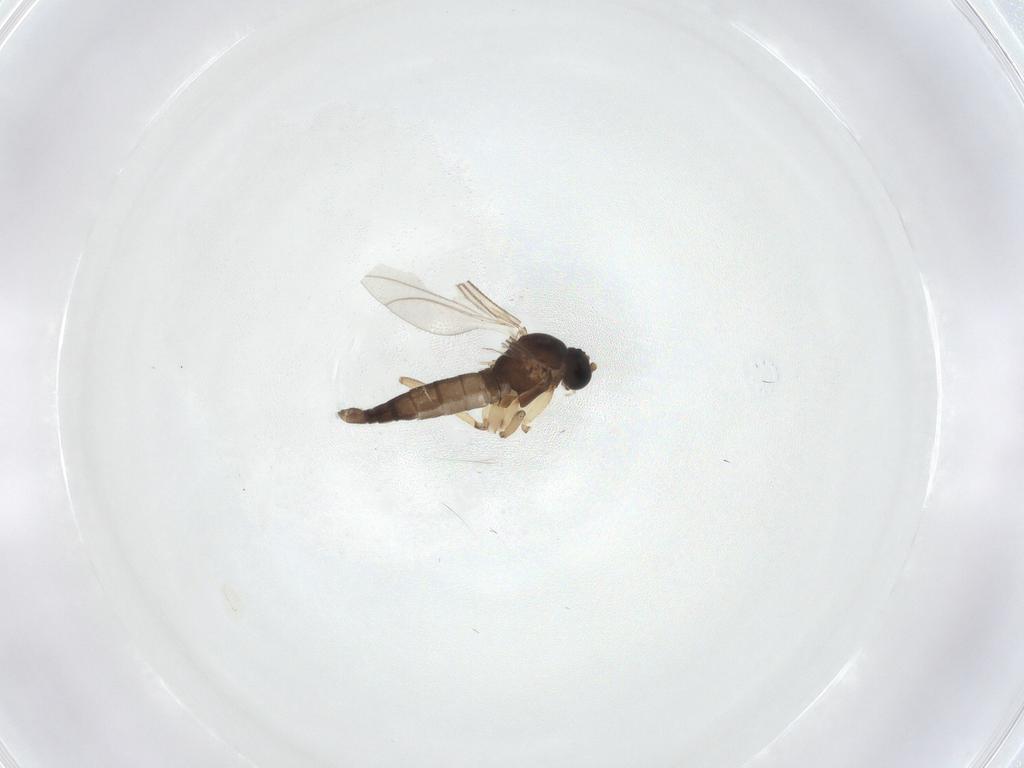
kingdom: Animalia
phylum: Arthropoda
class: Insecta
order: Diptera
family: Sciaridae
